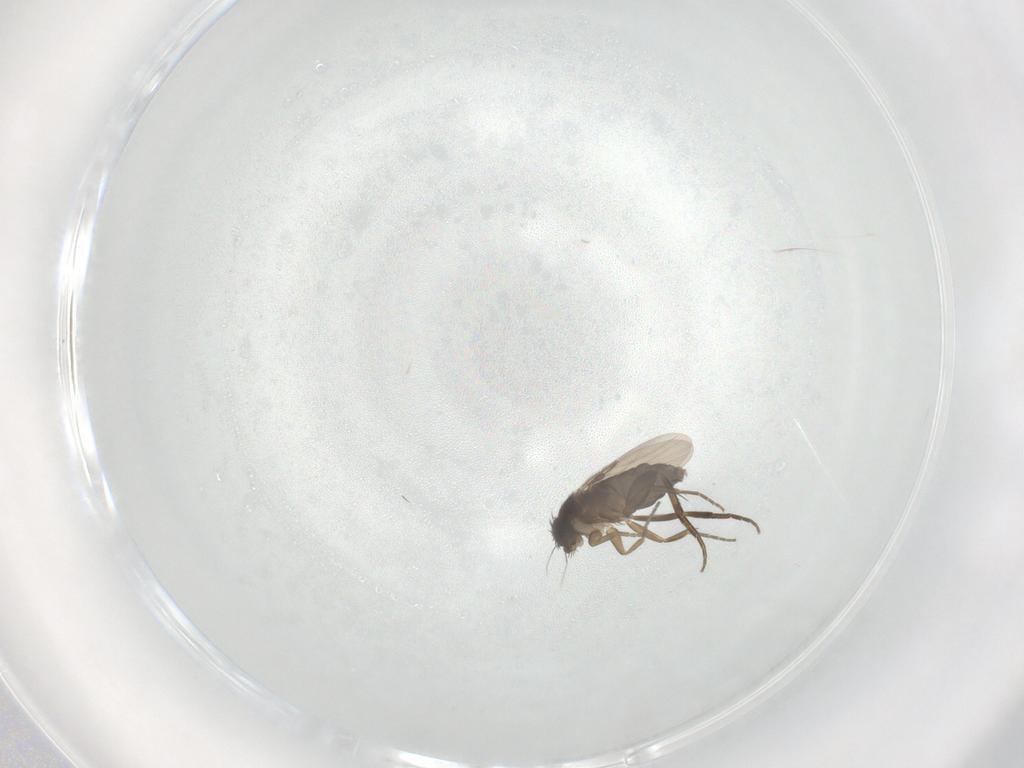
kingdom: Animalia
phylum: Arthropoda
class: Insecta
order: Diptera
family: Phoridae
